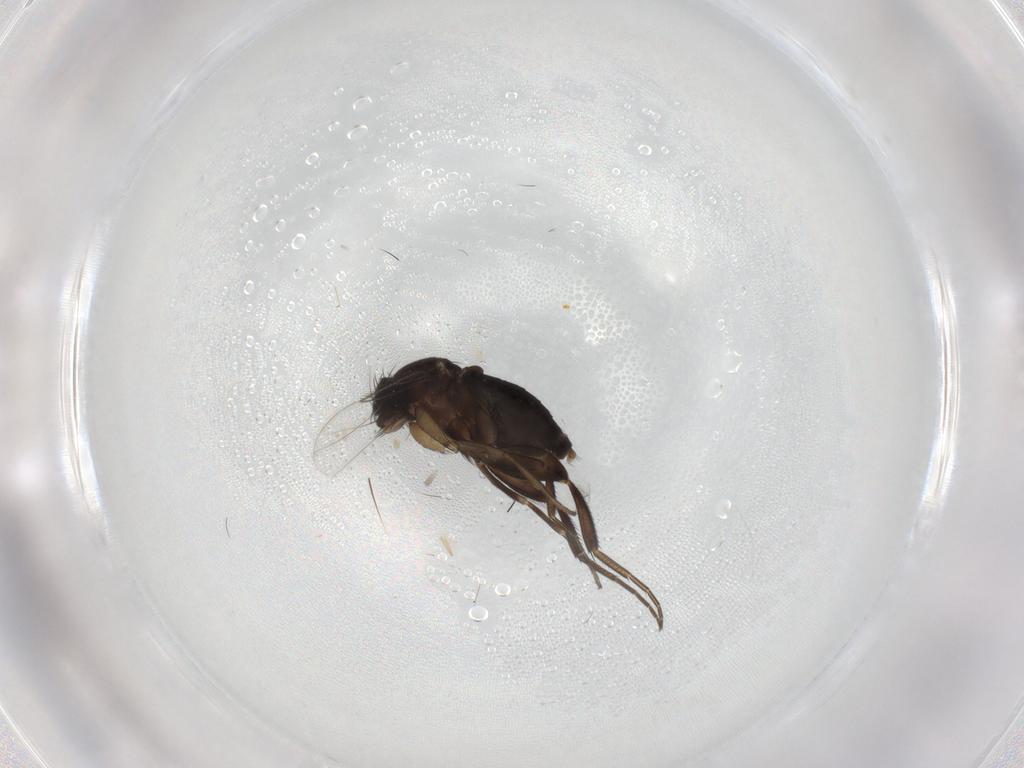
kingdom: Animalia
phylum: Arthropoda
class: Insecta
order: Diptera
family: Phoridae
